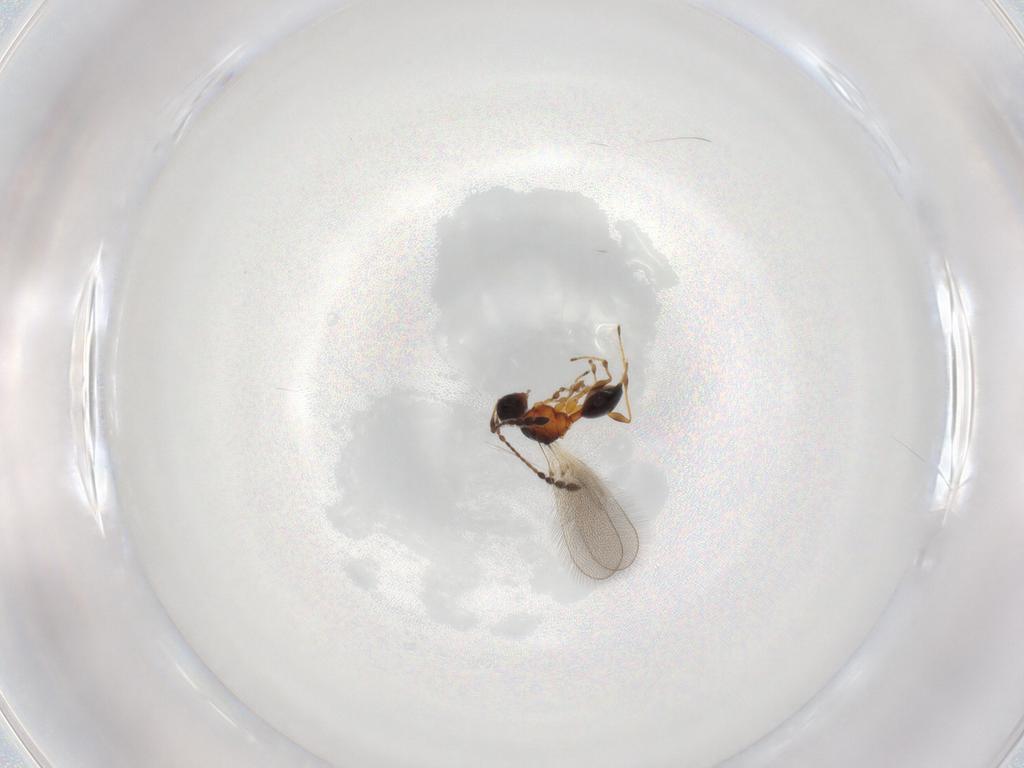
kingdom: Animalia
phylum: Arthropoda
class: Insecta
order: Hymenoptera
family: Diapriidae
